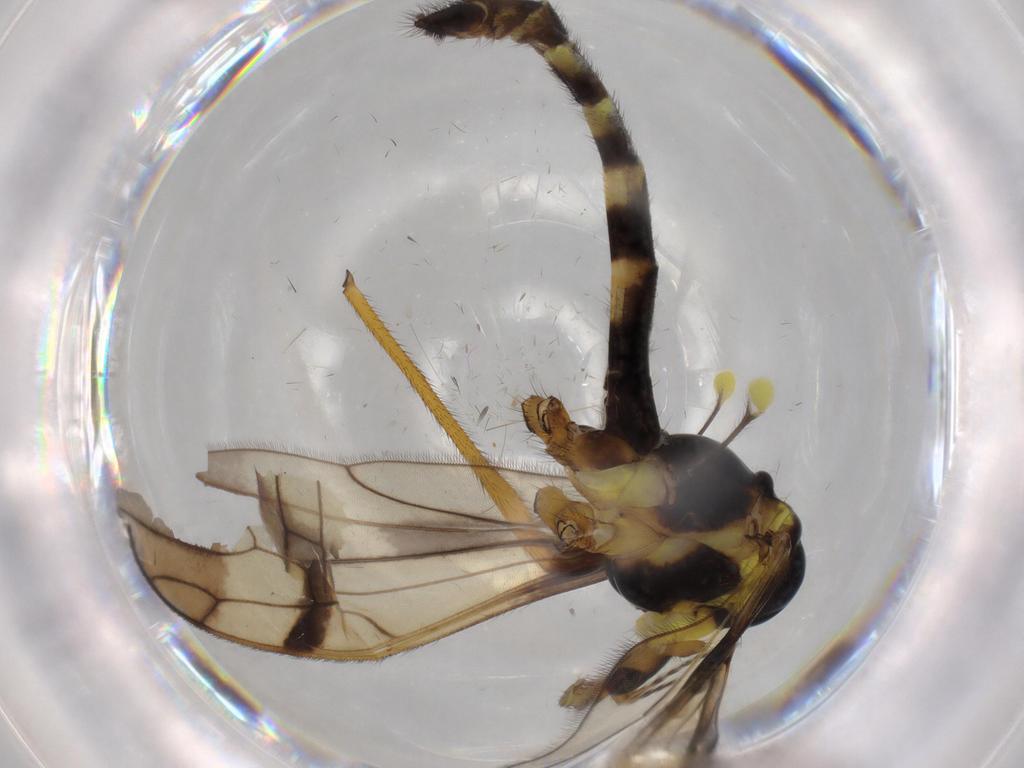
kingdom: Animalia
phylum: Arthropoda
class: Insecta
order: Diptera
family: Limoniidae
